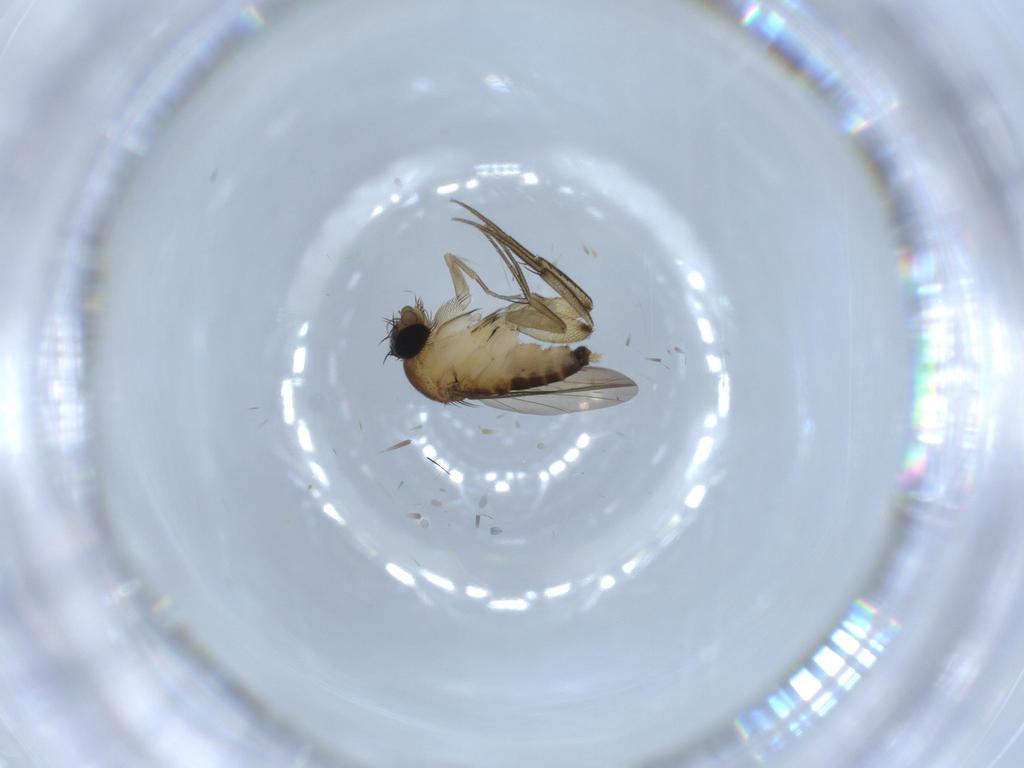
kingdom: Animalia
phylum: Arthropoda
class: Insecta
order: Diptera
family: Phoridae
